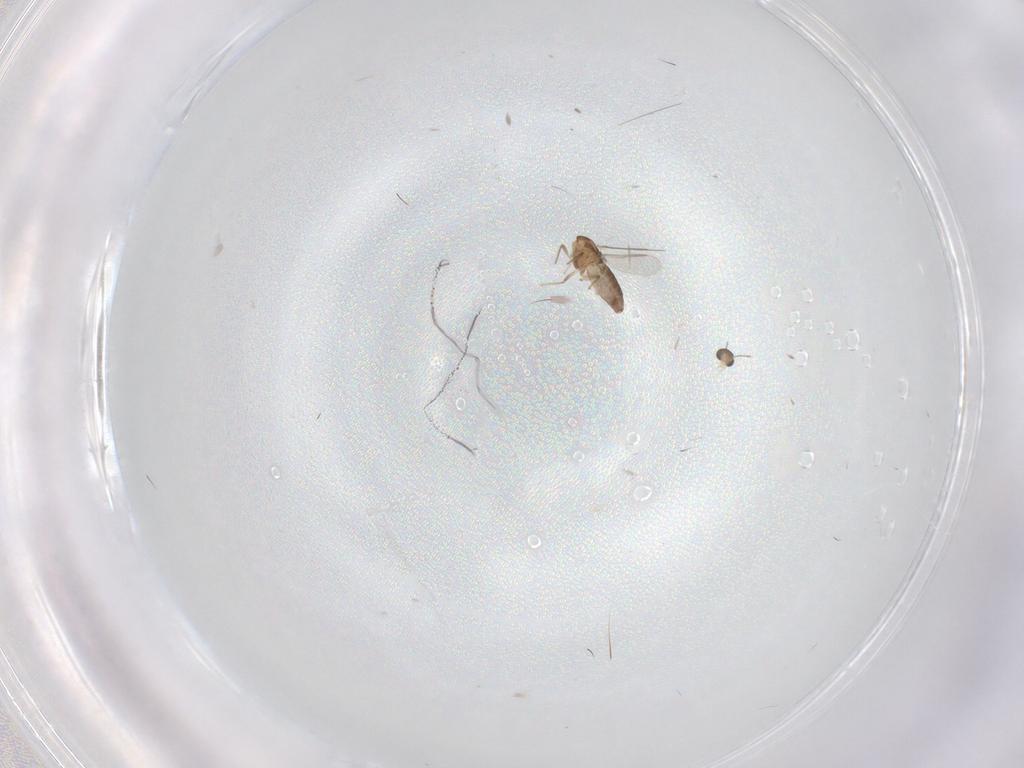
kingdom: Animalia
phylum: Arthropoda
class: Insecta
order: Diptera
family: Chironomidae
